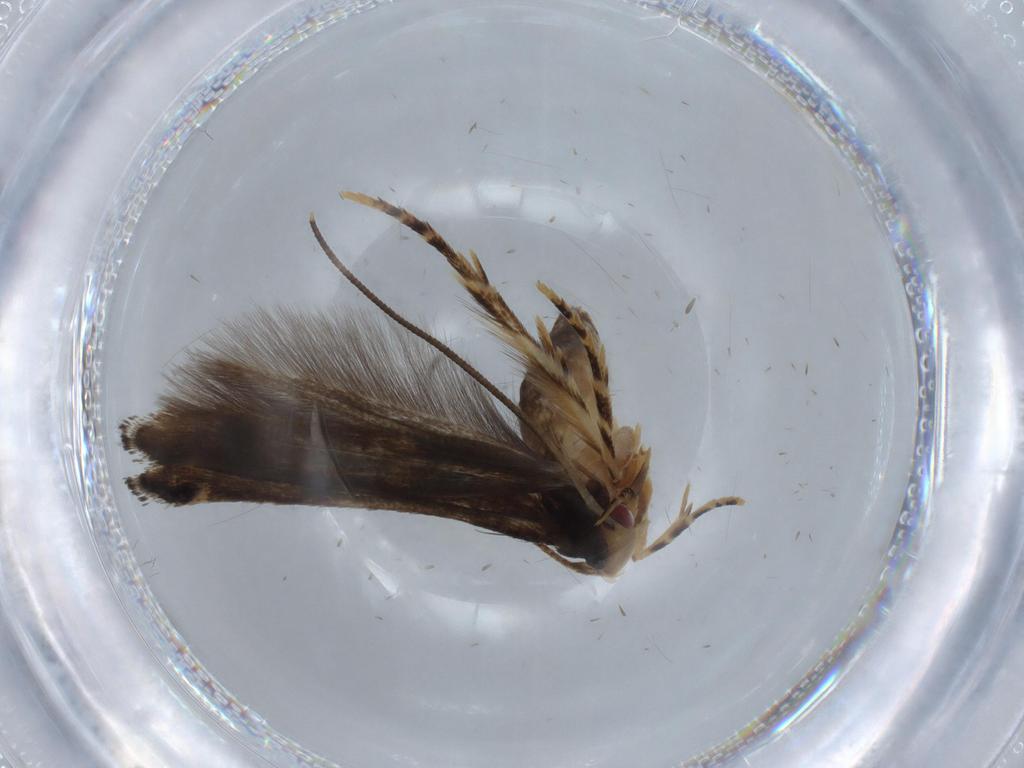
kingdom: Animalia
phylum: Arthropoda
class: Insecta
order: Lepidoptera
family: Momphidae
